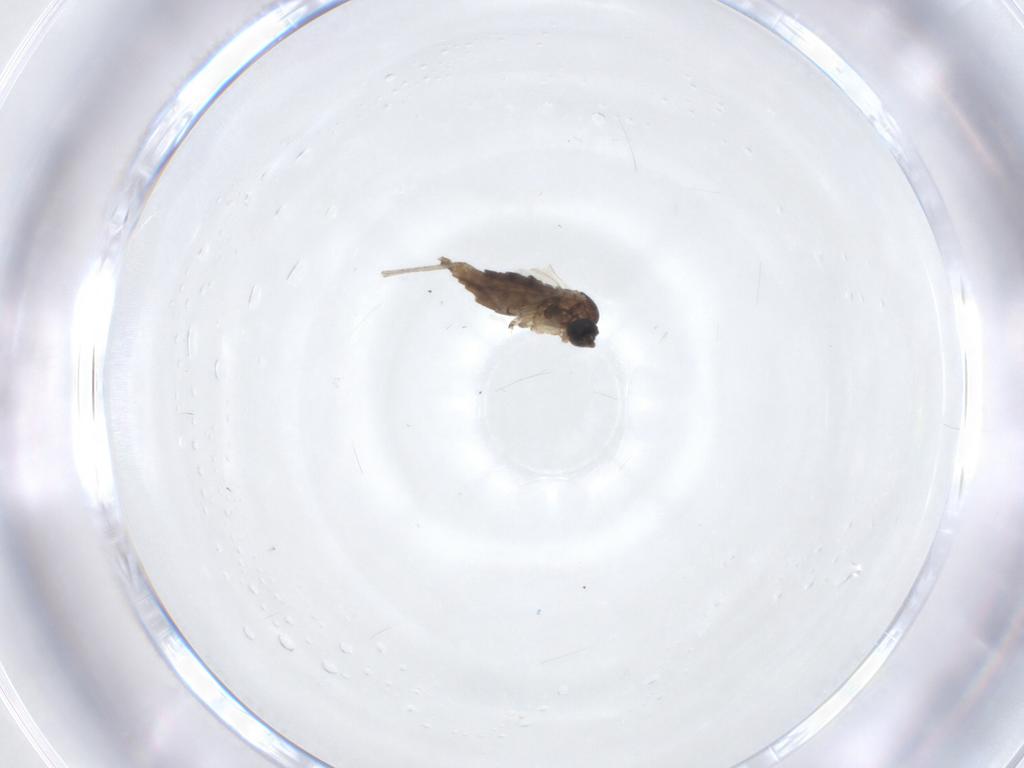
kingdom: Animalia
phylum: Arthropoda
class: Insecta
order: Diptera
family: Sciaridae
